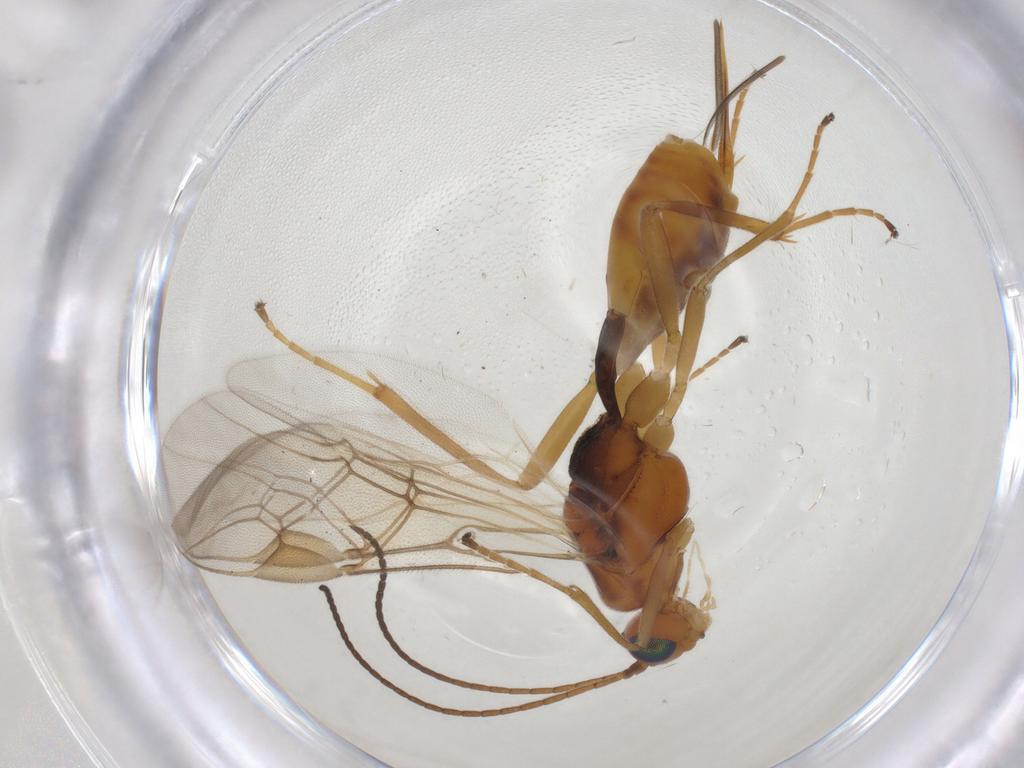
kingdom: Animalia
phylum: Arthropoda
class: Insecta
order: Hymenoptera
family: Braconidae
